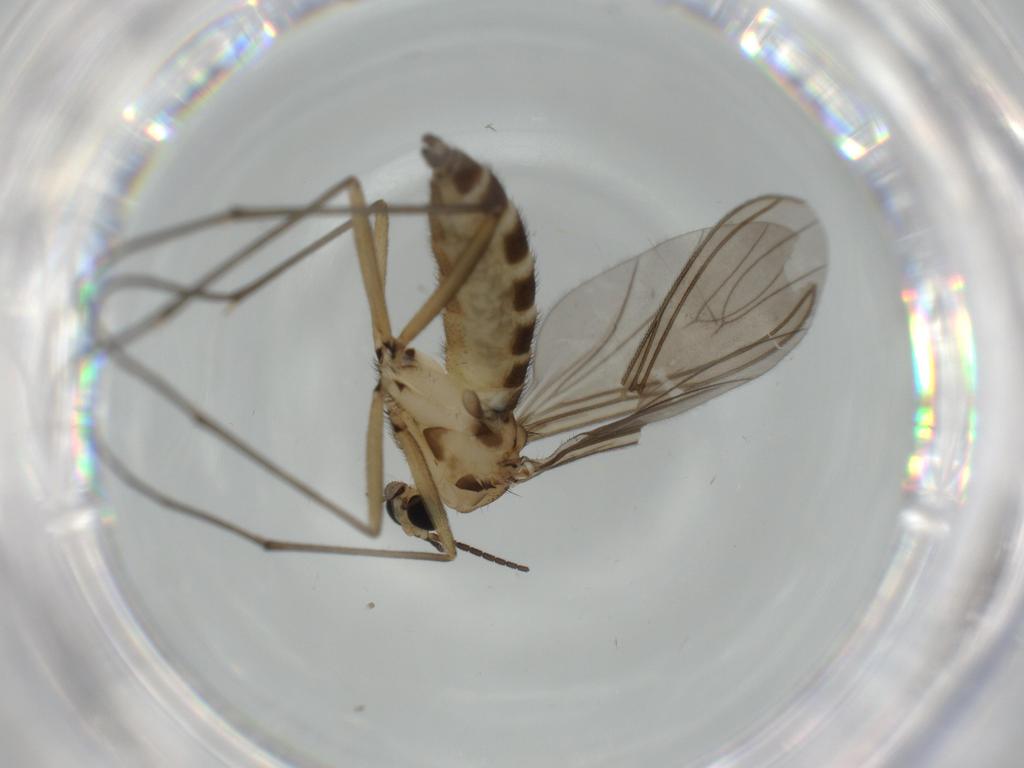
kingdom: Animalia
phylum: Arthropoda
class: Insecta
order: Diptera
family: Sciaridae
